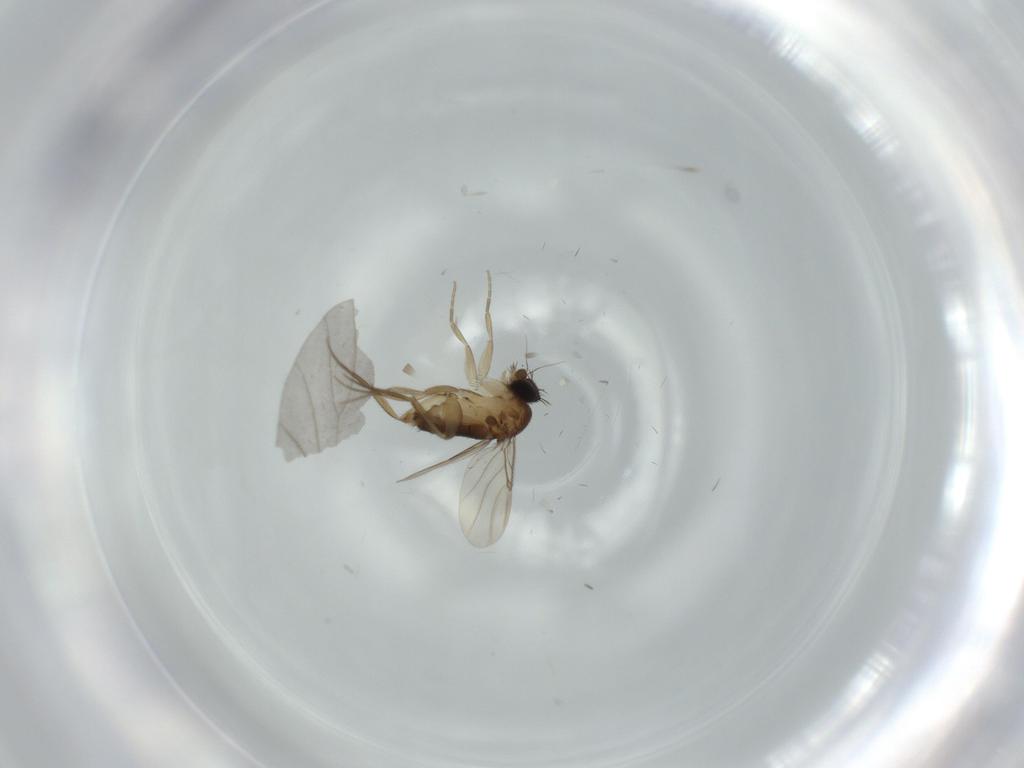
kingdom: Animalia
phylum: Arthropoda
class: Insecta
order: Diptera
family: Phoridae
